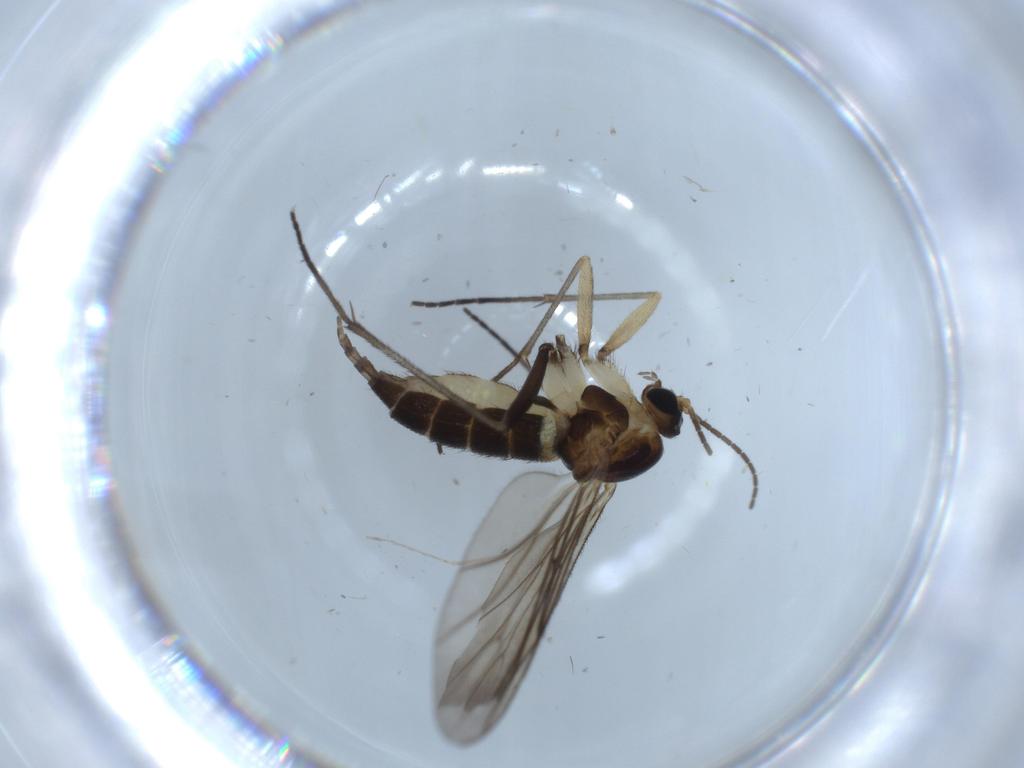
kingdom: Animalia
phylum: Arthropoda
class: Insecta
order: Diptera
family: Sciaridae
